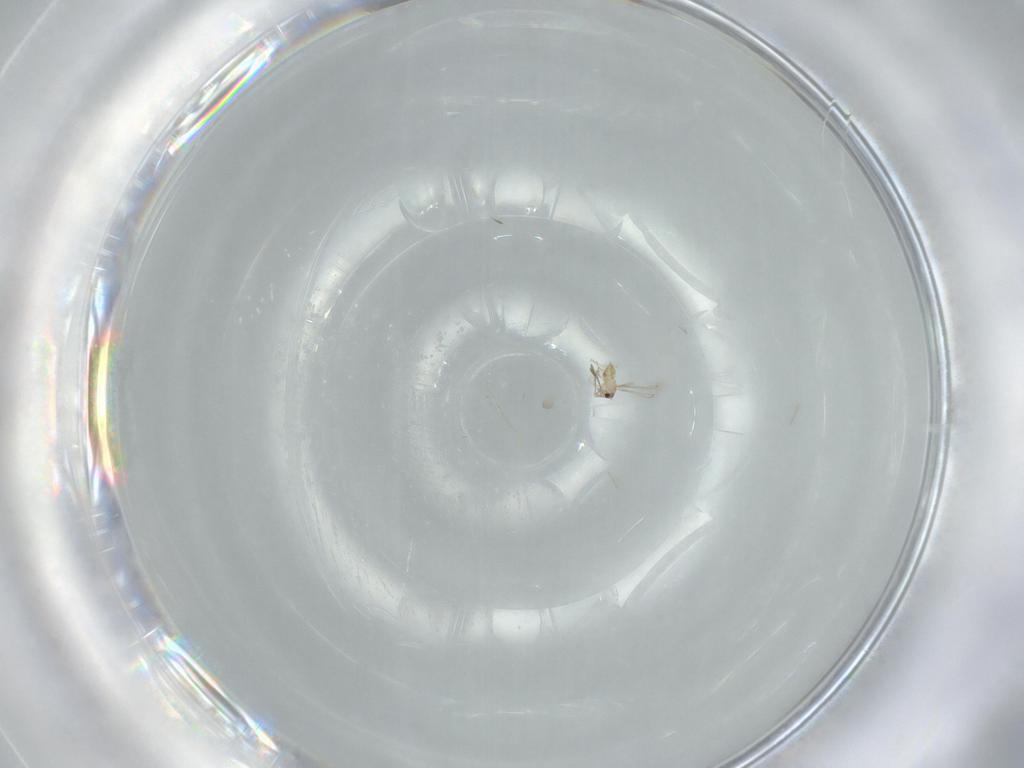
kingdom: Animalia
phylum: Arthropoda
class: Insecta
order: Hymenoptera
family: Mymaridae
